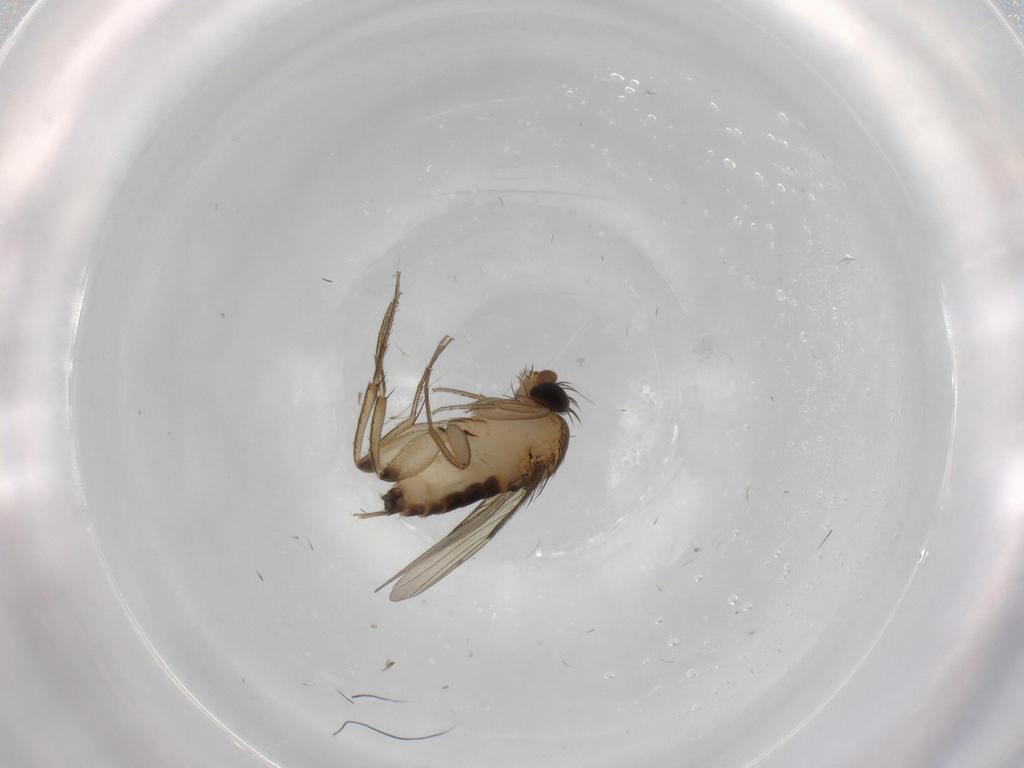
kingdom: Animalia
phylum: Arthropoda
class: Insecta
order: Diptera
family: Phoridae
